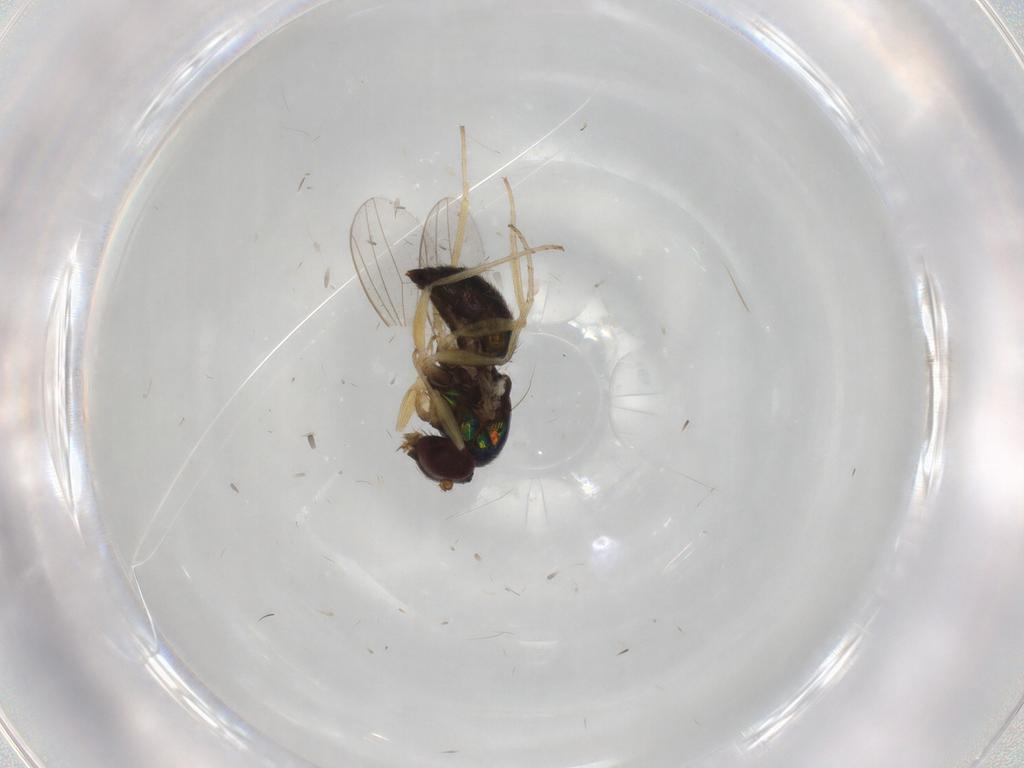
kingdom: Animalia
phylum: Arthropoda
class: Insecta
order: Diptera
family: Dolichopodidae
